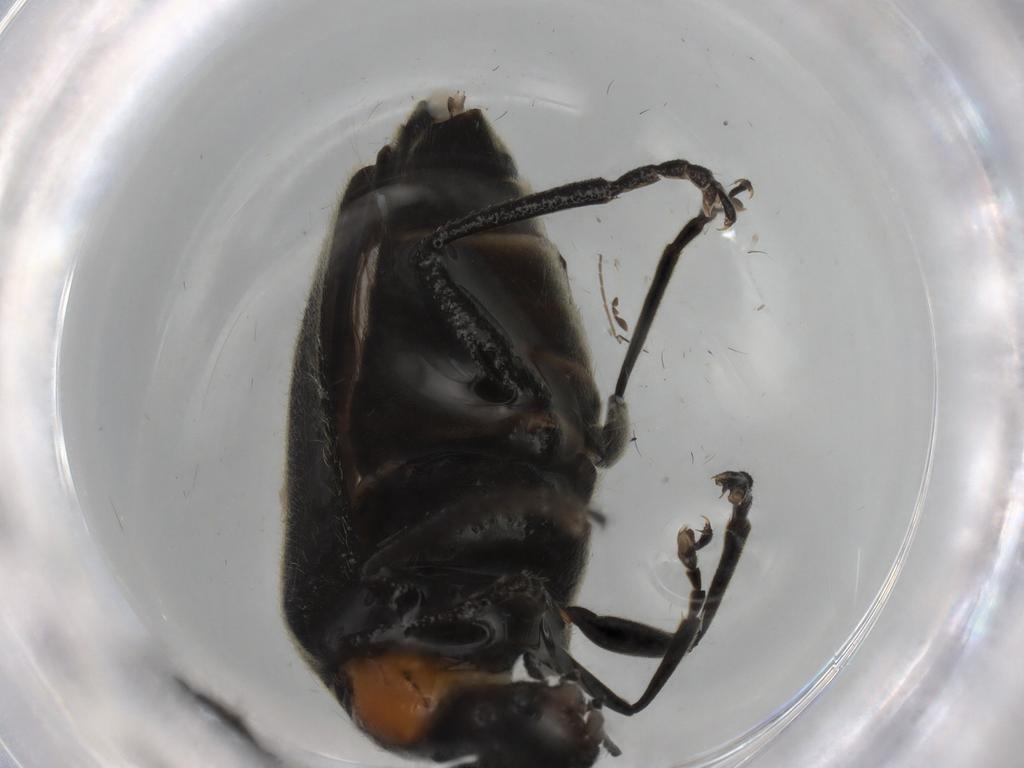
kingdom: Animalia
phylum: Arthropoda
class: Insecta
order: Coleoptera
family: Cantharidae
